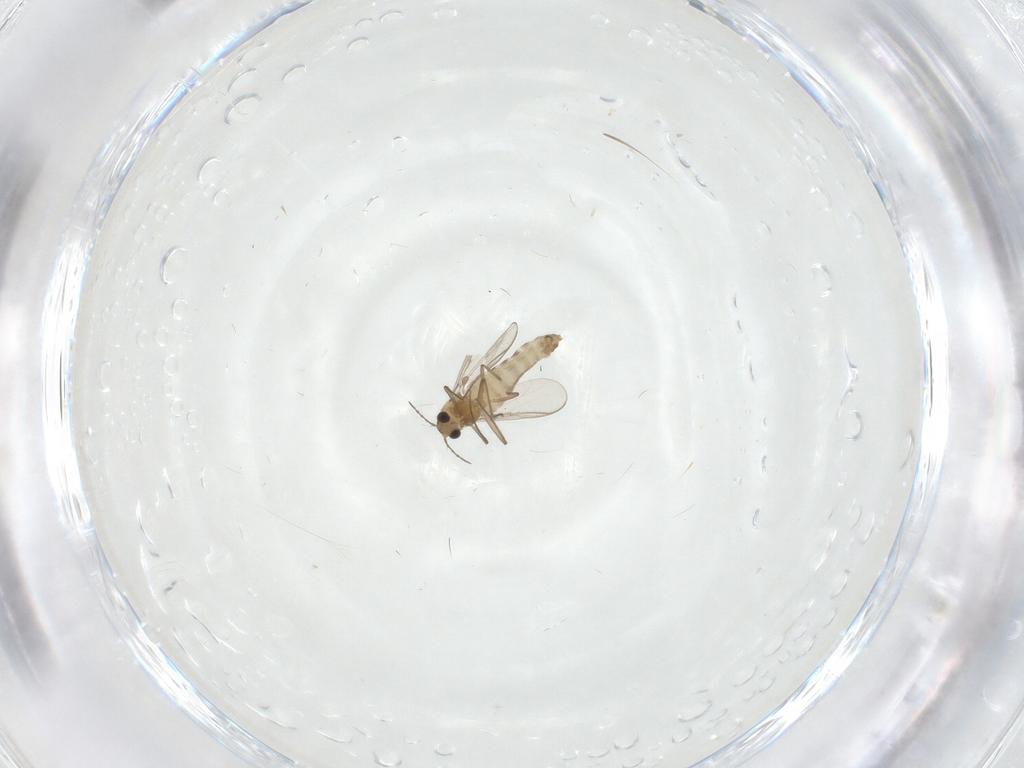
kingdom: Animalia
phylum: Arthropoda
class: Insecta
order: Diptera
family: Chironomidae
